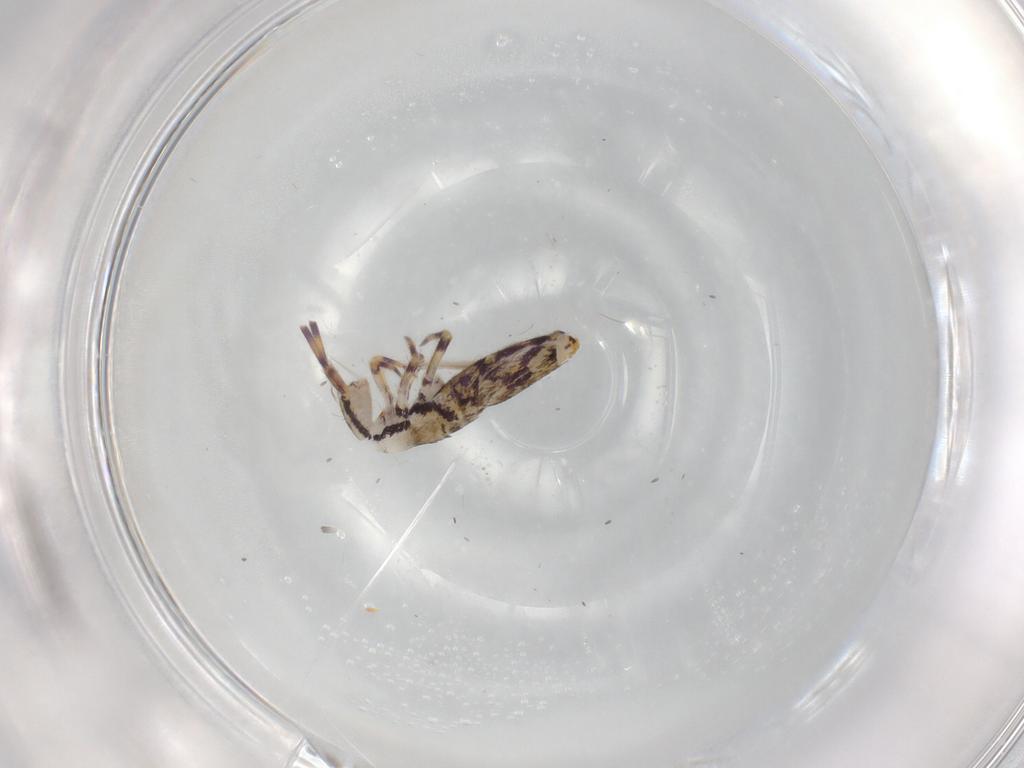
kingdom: Animalia
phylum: Arthropoda
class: Collembola
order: Entomobryomorpha
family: Entomobryidae
